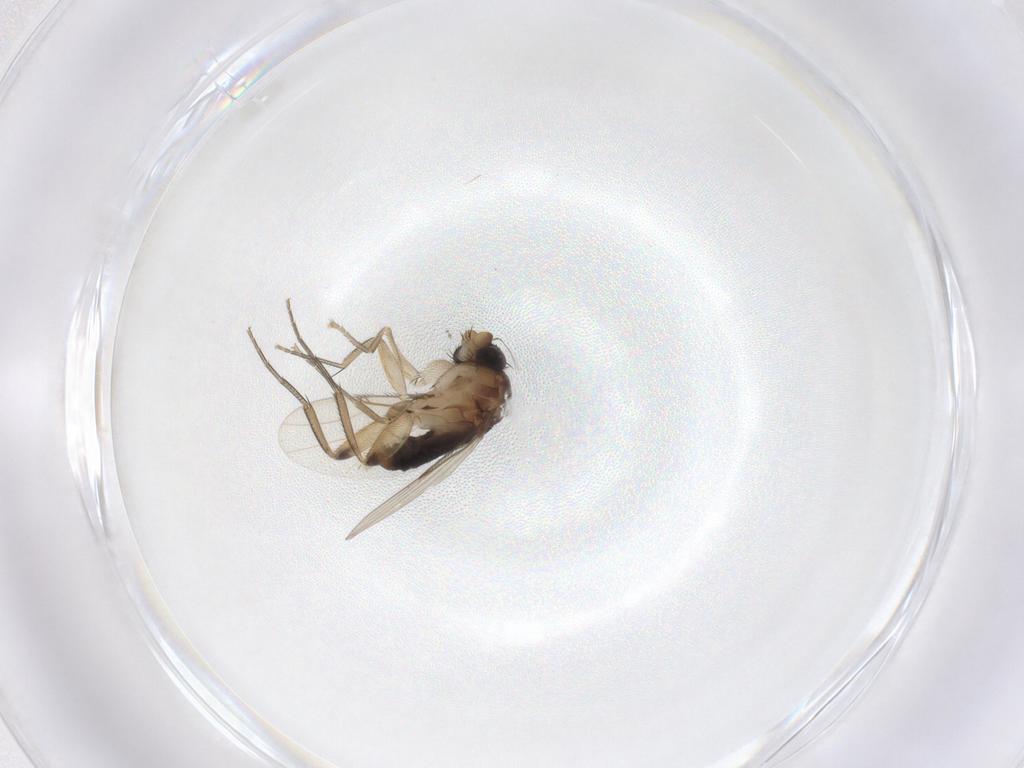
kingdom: Animalia
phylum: Arthropoda
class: Insecta
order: Diptera
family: Phoridae
